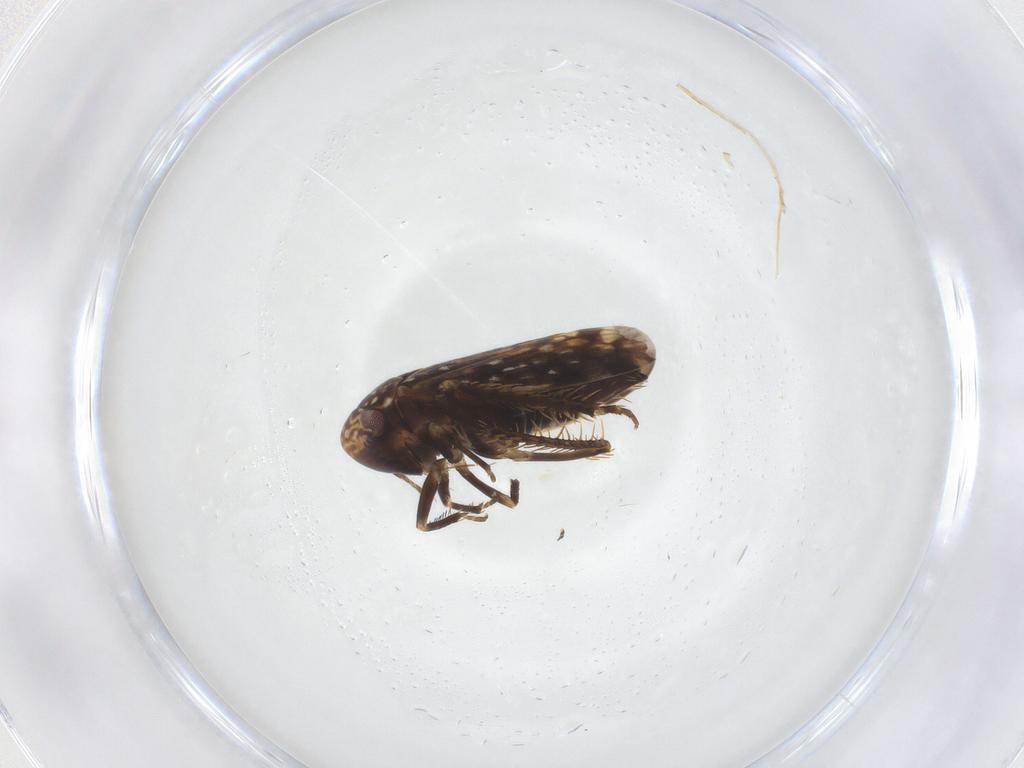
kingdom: Animalia
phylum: Arthropoda
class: Insecta
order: Hemiptera
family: Cicadellidae
